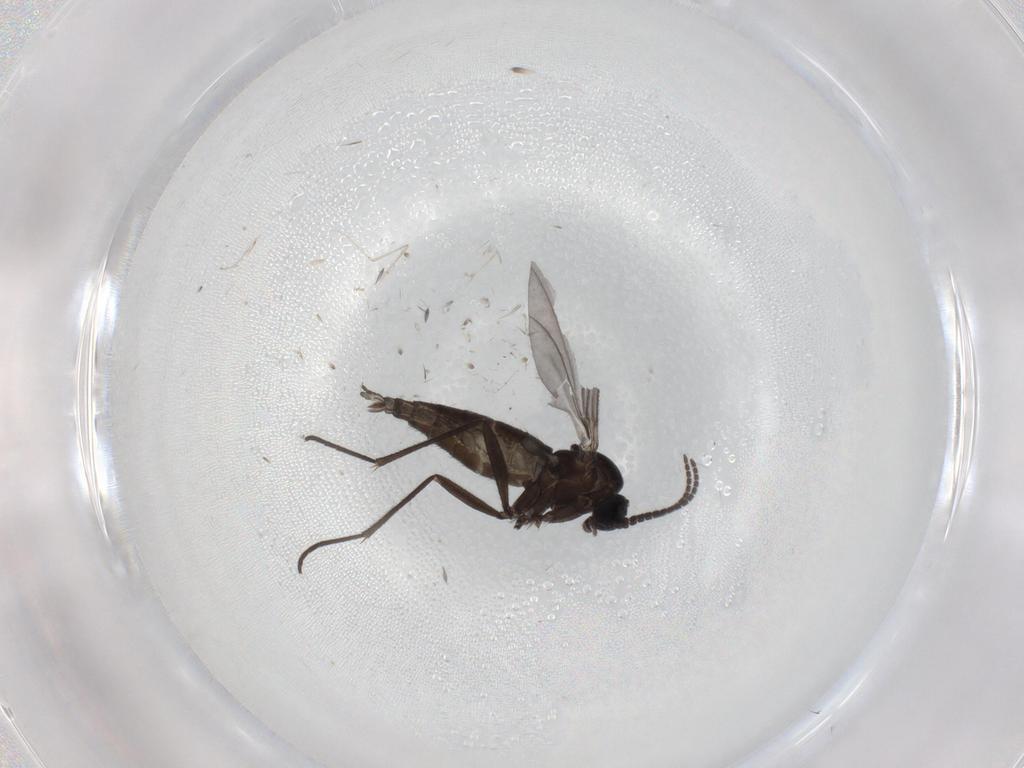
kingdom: Animalia
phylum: Arthropoda
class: Insecta
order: Diptera
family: Sciaridae
